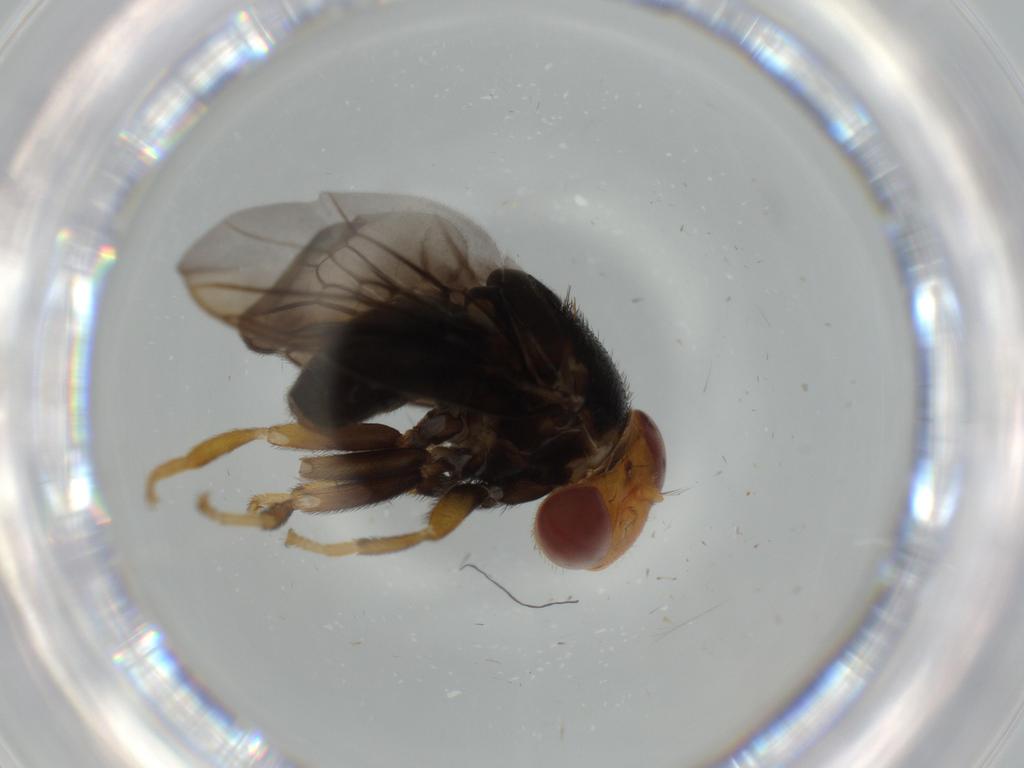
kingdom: Animalia
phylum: Arthropoda
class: Insecta
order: Diptera
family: Ulidiidae
